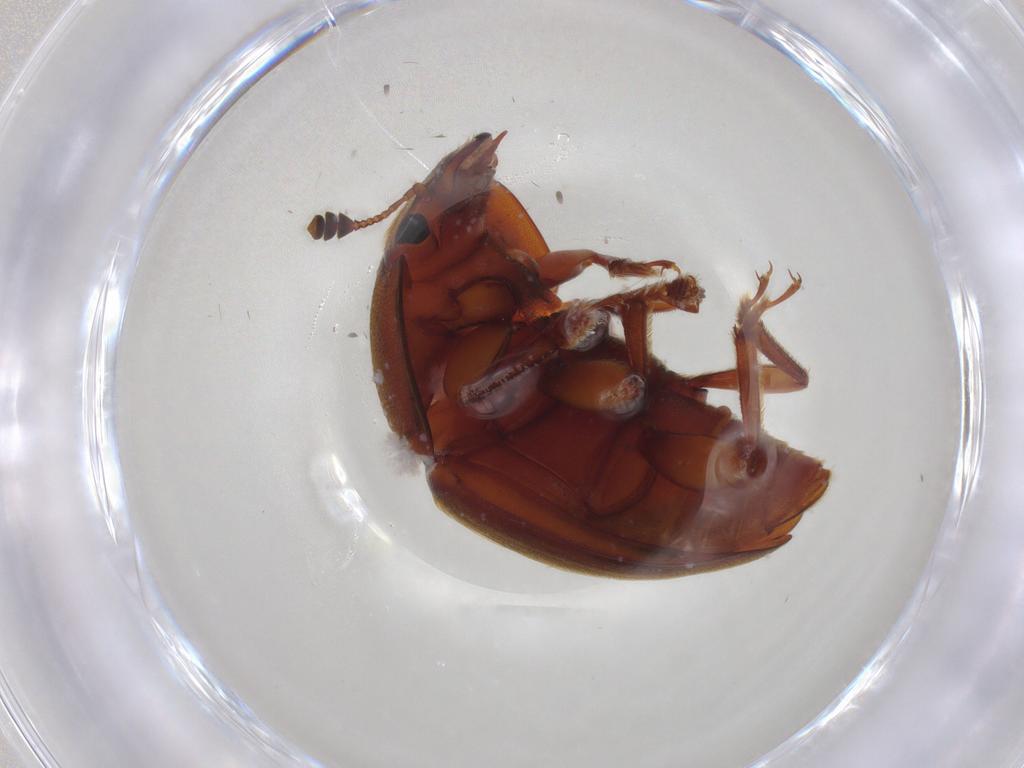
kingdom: Animalia
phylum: Arthropoda
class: Insecta
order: Coleoptera
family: Nitidulidae
